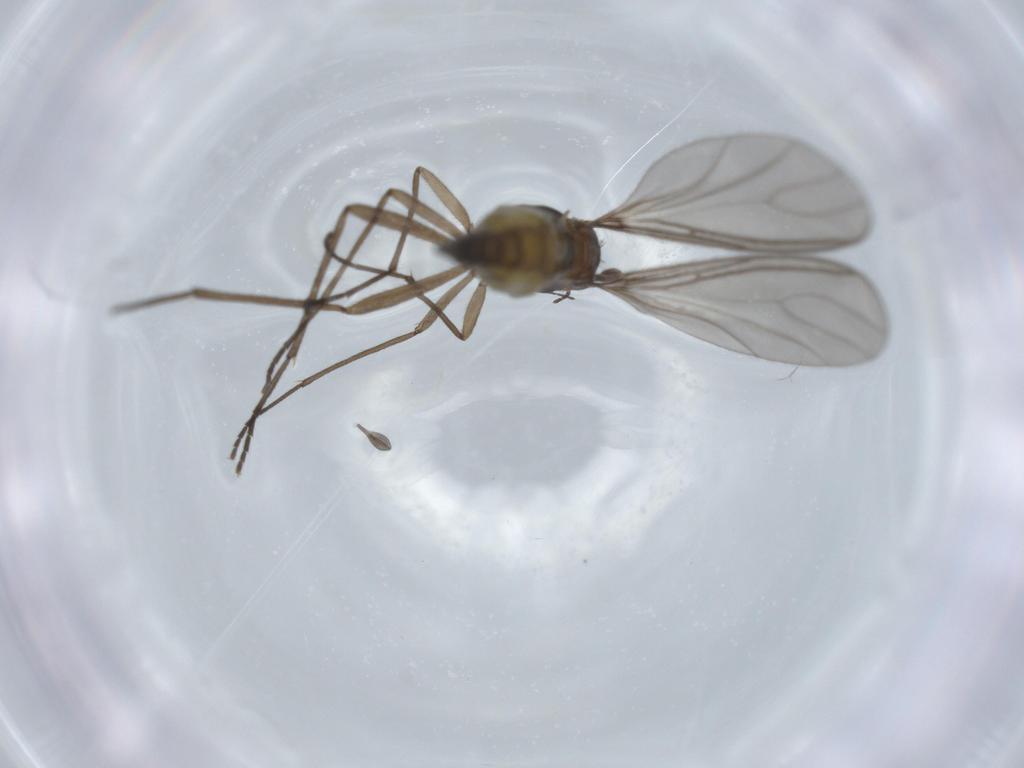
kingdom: Animalia
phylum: Arthropoda
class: Insecta
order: Diptera
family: Sciaridae
